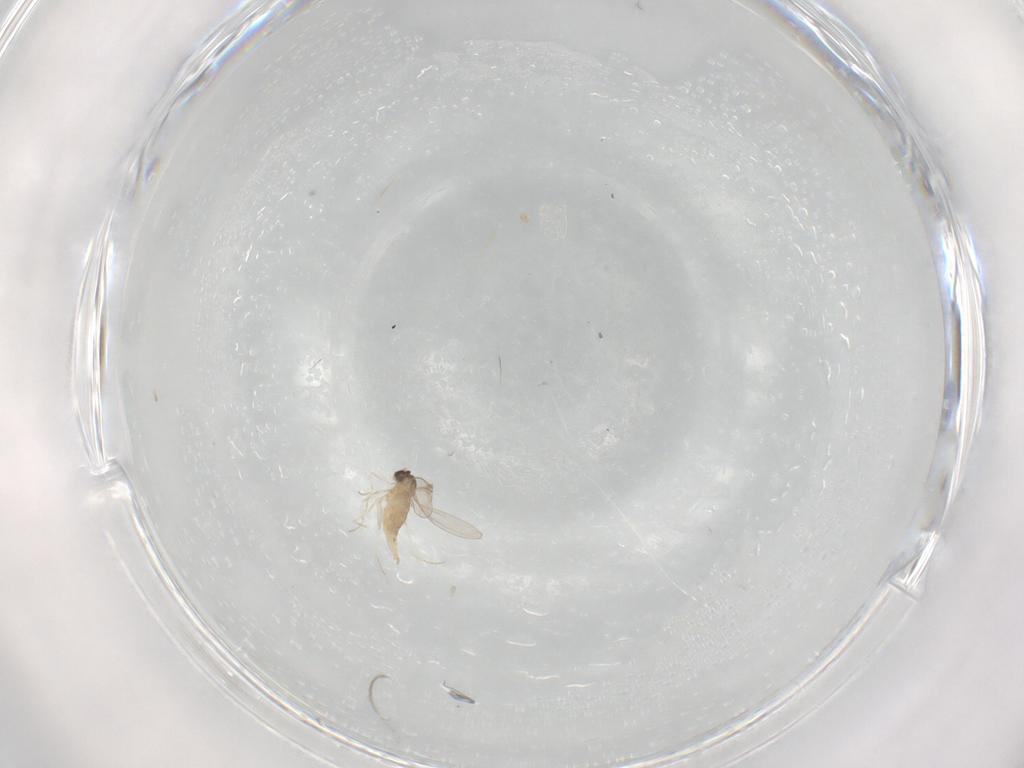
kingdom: Animalia
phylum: Arthropoda
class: Insecta
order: Diptera
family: Cecidomyiidae
